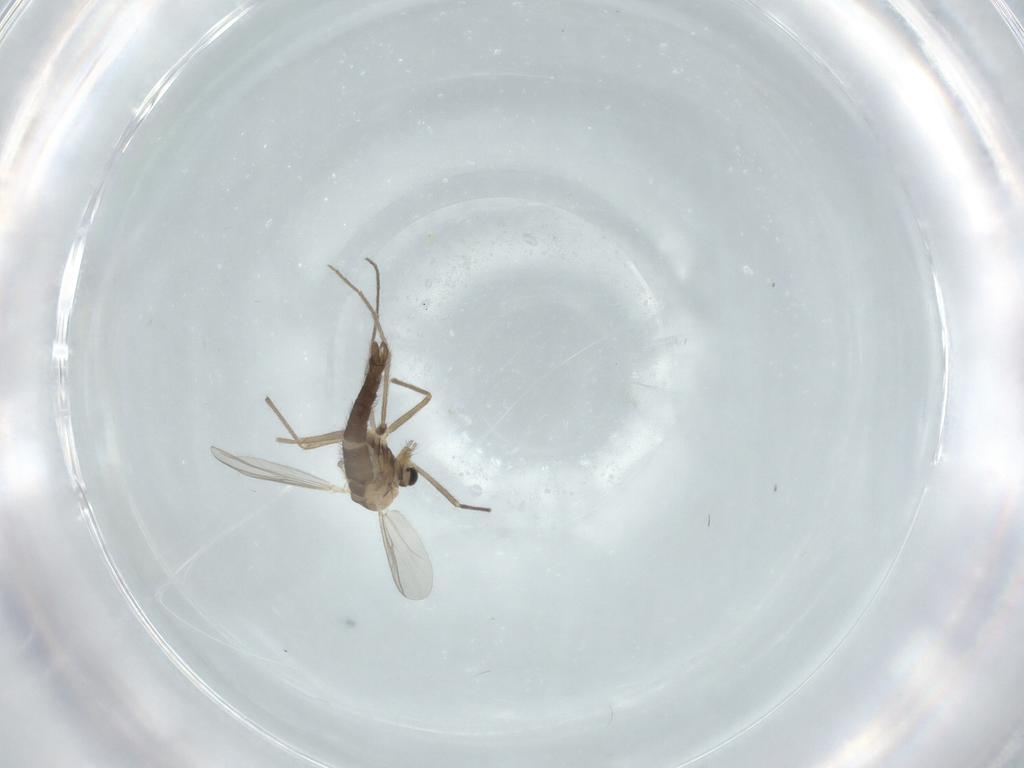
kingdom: Animalia
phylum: Arthropoda
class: Insecta
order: Diptera
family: Chironomidae
